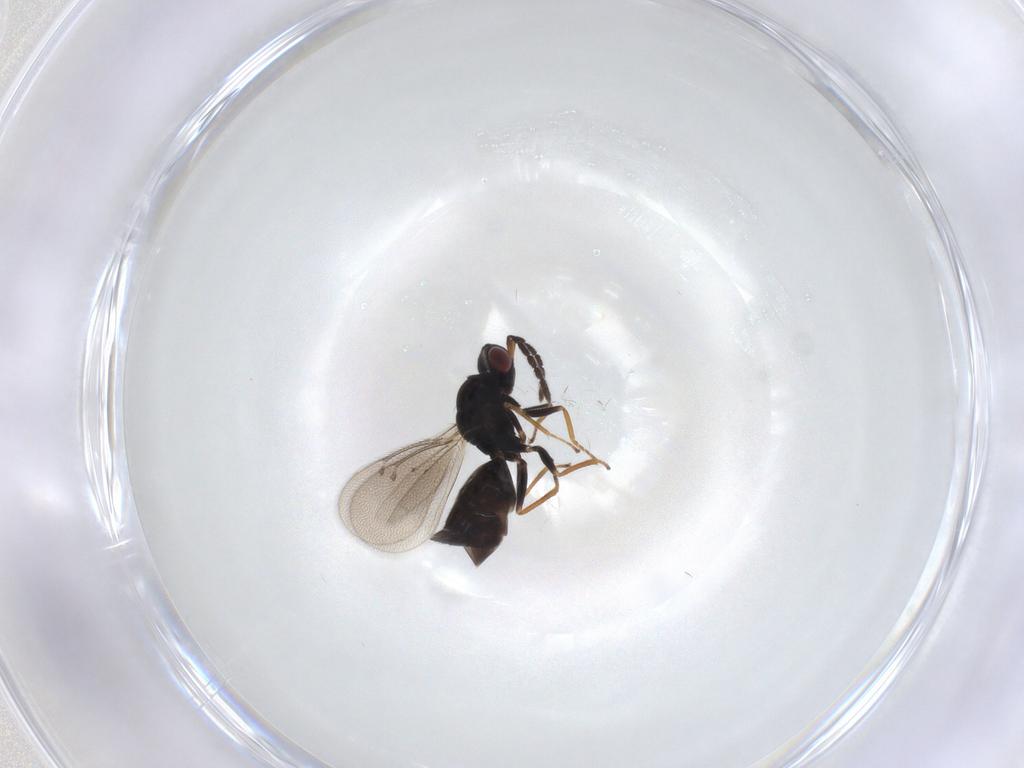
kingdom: Animalia
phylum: Arthropoda
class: Insecta
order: Hymenoptera
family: Eulophidae
